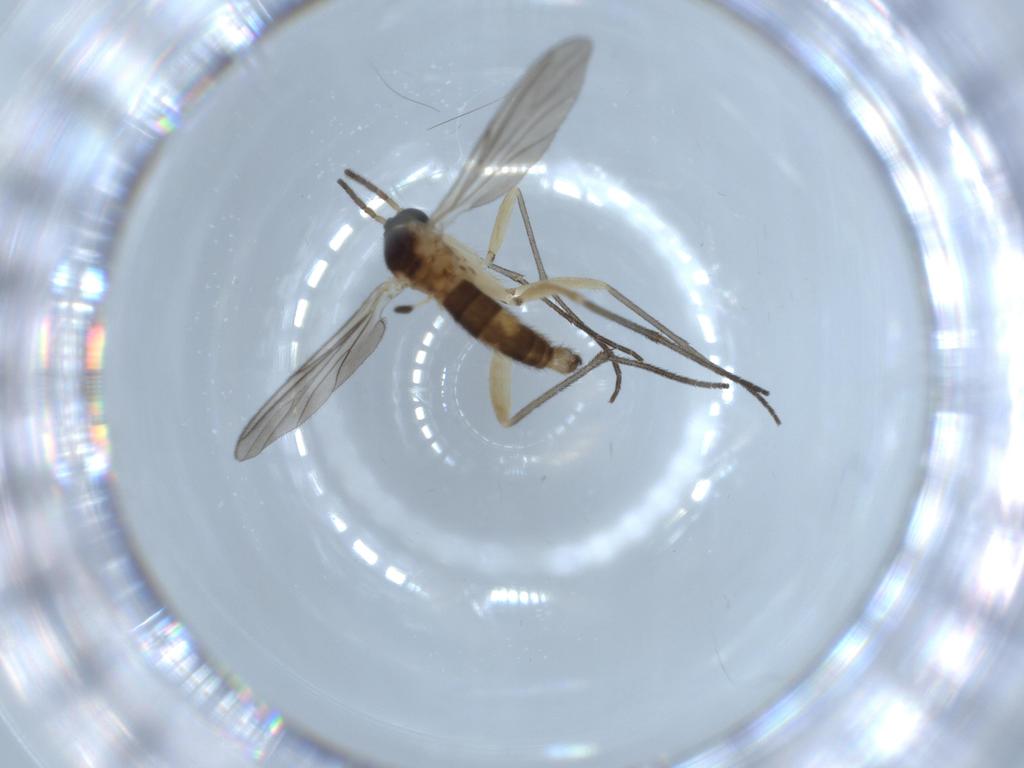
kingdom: Animalia
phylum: Arthropoda
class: Insecta
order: Diptera
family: Sciaridae
